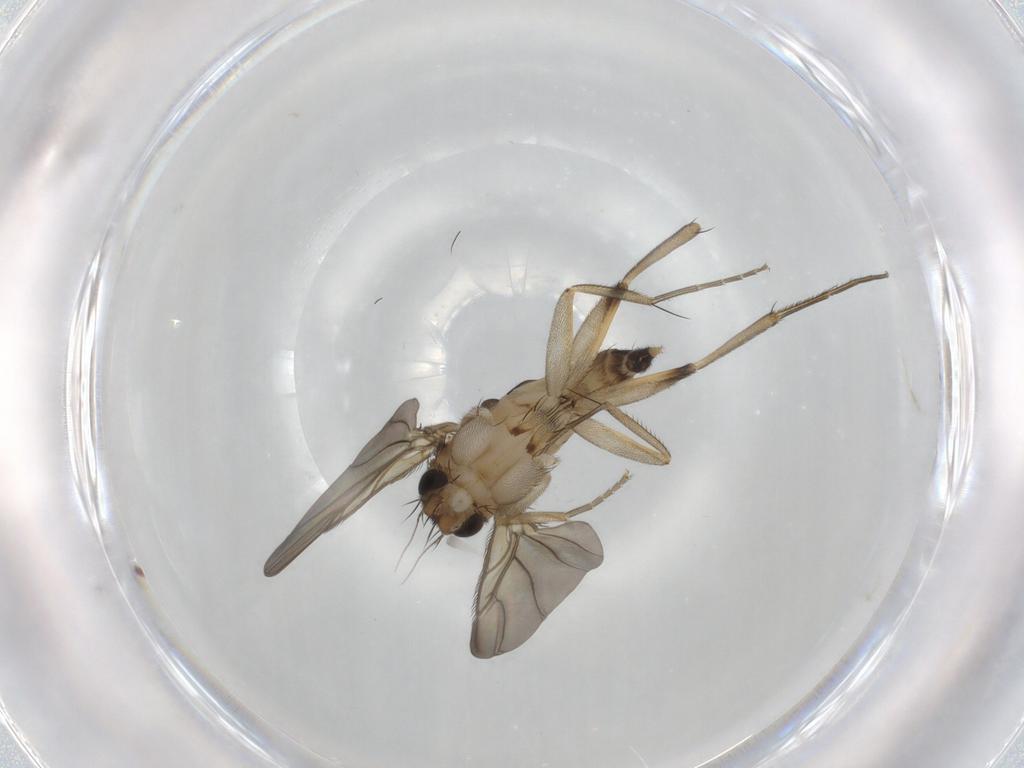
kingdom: Animalia
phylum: Arthropoda
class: Insecta
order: Diptera
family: Phoridae
